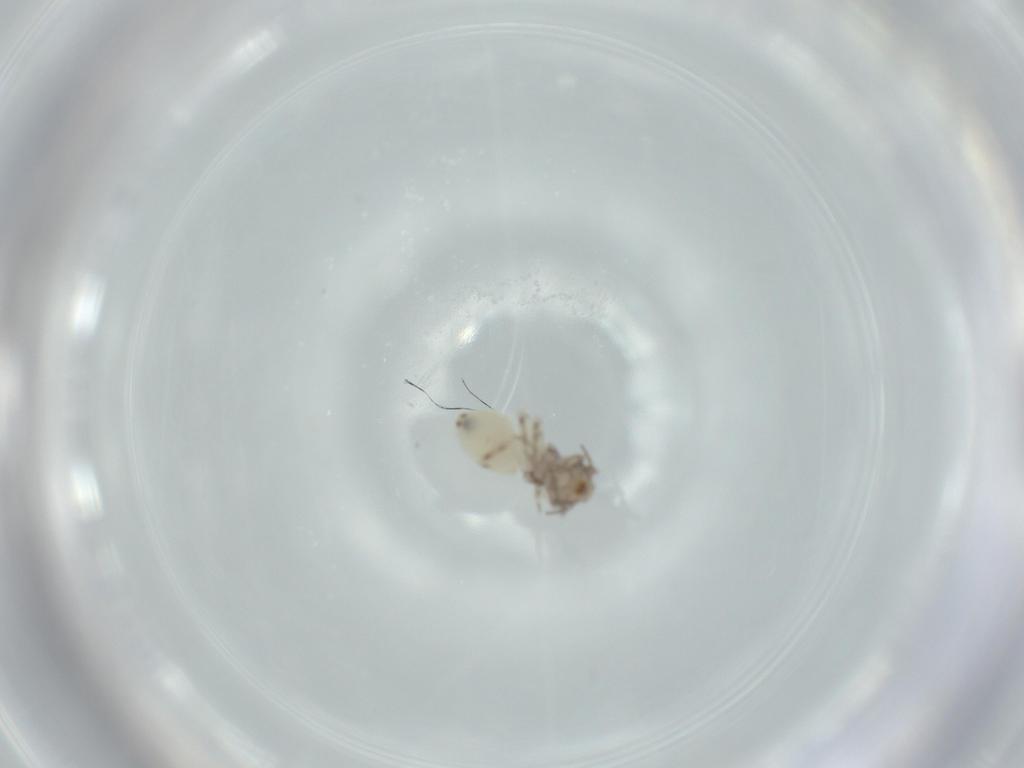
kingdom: Animalia
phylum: Arthropoda
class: Insecta
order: Psocodea
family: Lepidopsocidae
